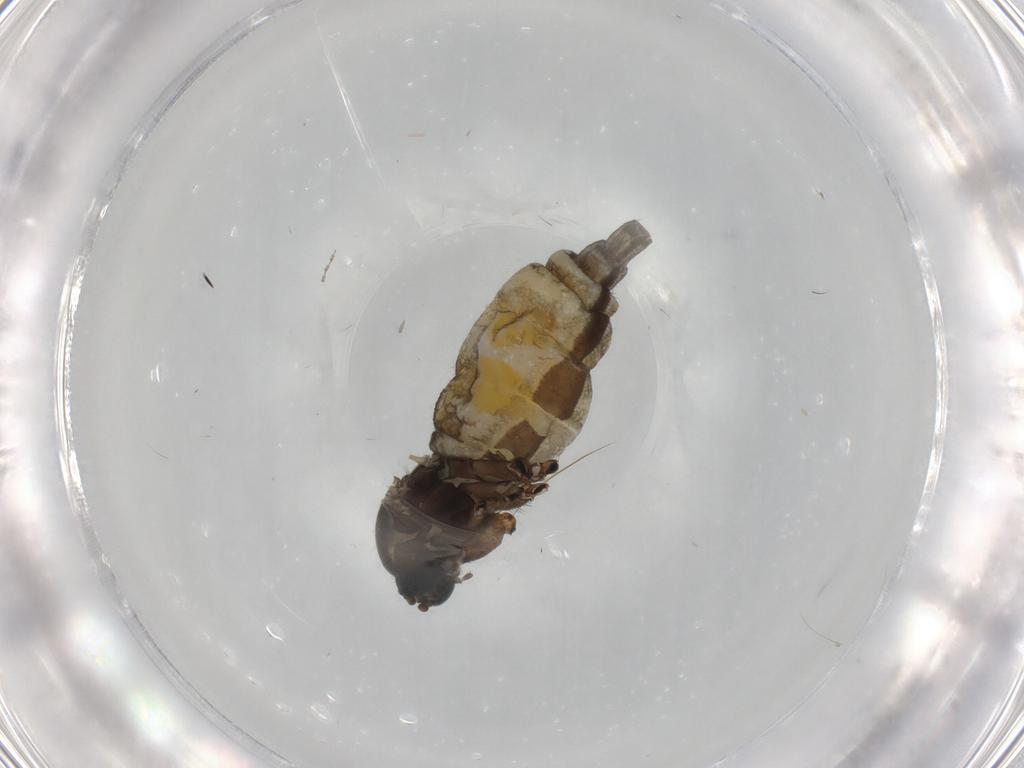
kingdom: Animalia
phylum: Arthropoda
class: Insecta
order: Diptera
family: Sciaridae
